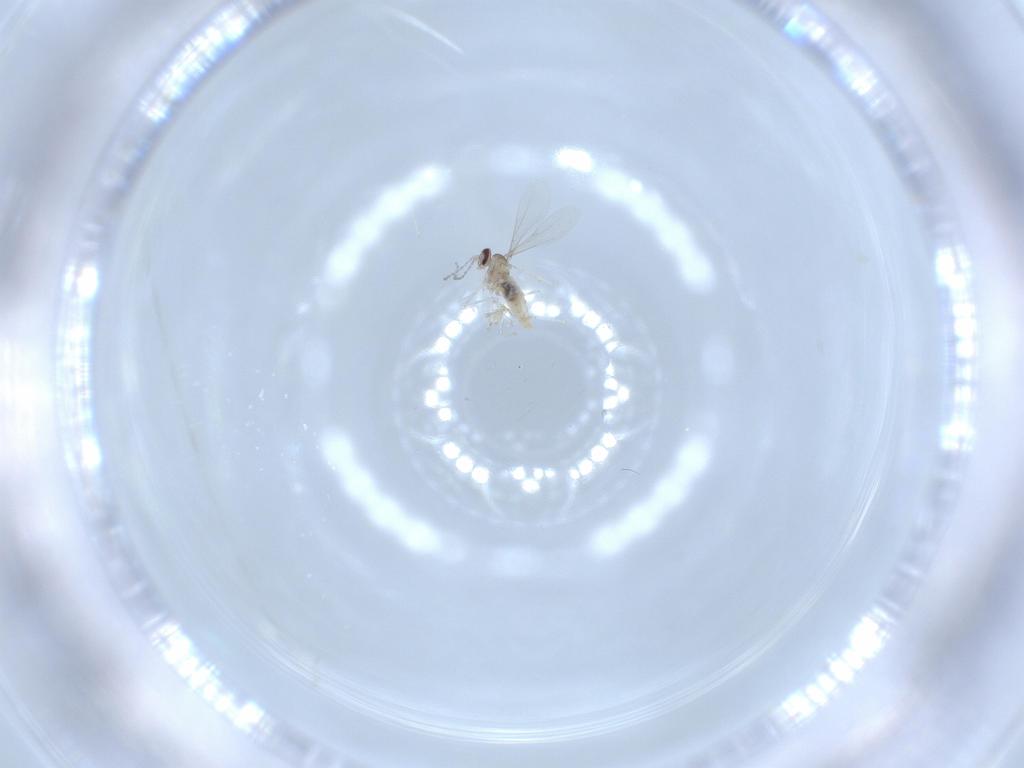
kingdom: Animalia
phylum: Arthropoda
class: Insecta
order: Diptera
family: Cecidomyiidae
